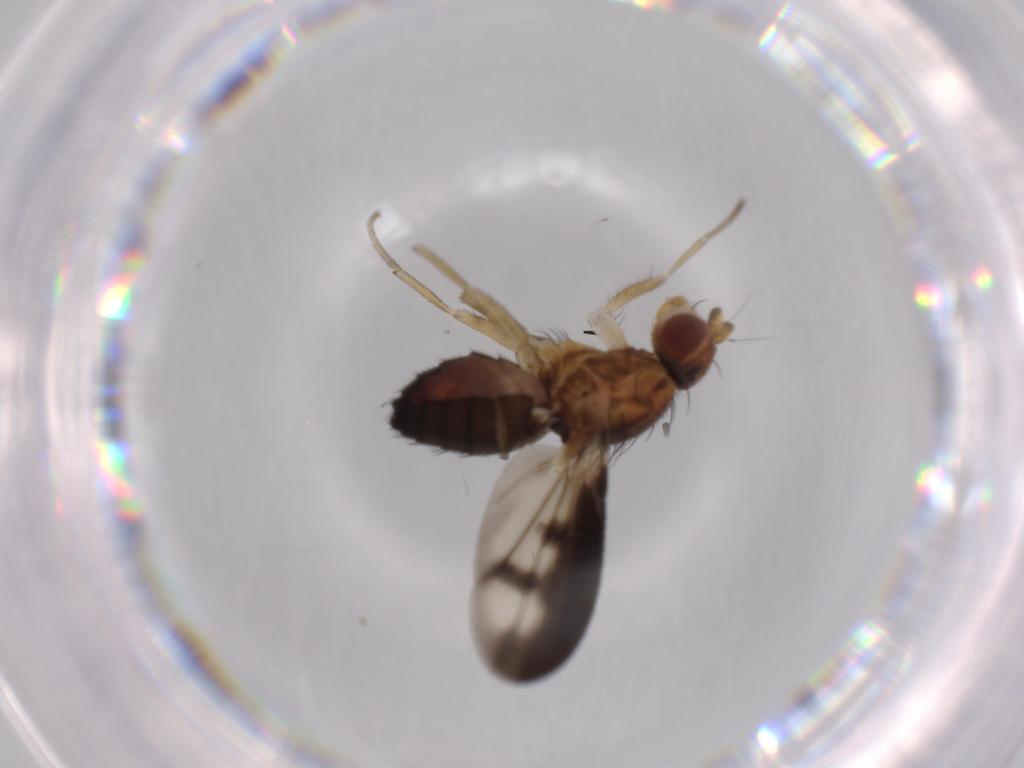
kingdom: Animalia
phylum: Arthropoda
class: Insecta
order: Diptera
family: Heleomyzidae
